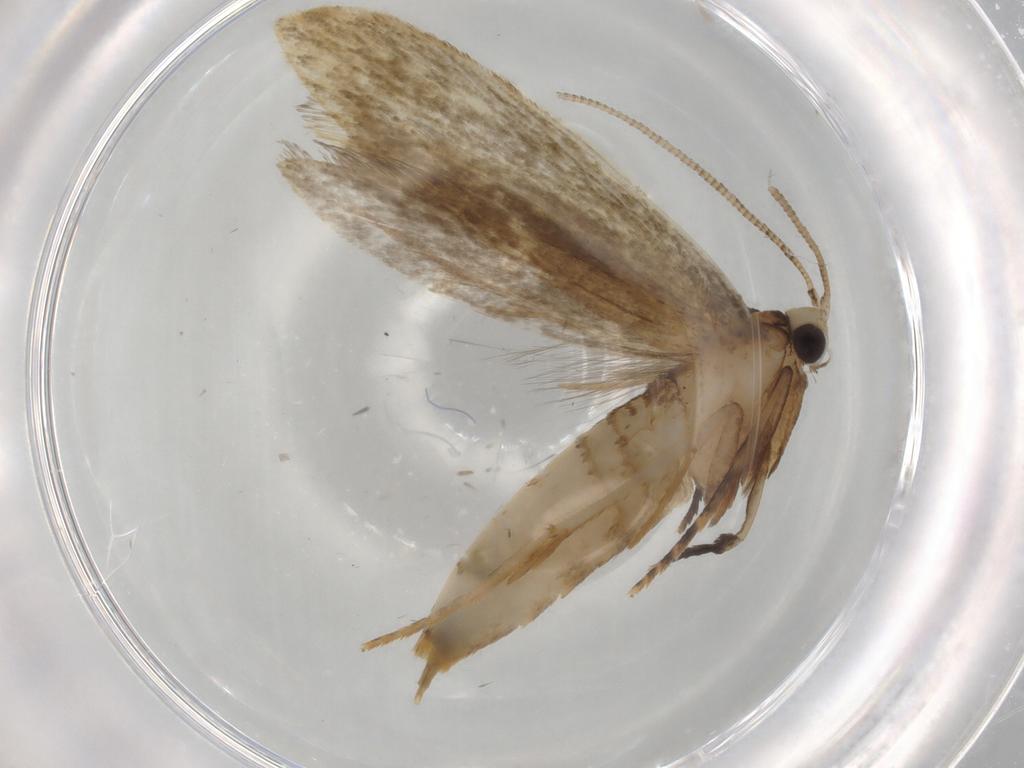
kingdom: Animalia
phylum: Arthropoda
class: Insecta
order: Lepidoptera
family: Tineidae
